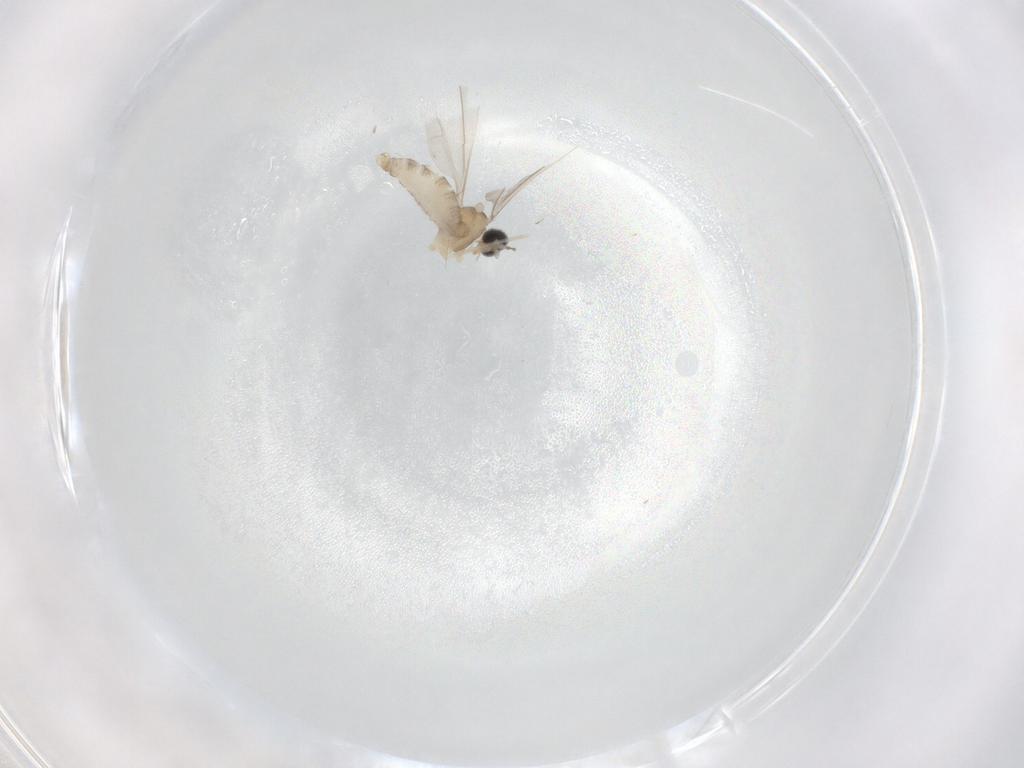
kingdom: Animalia
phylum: Arthropoda
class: Insecta
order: Diptera
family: Cecidomyiidae
